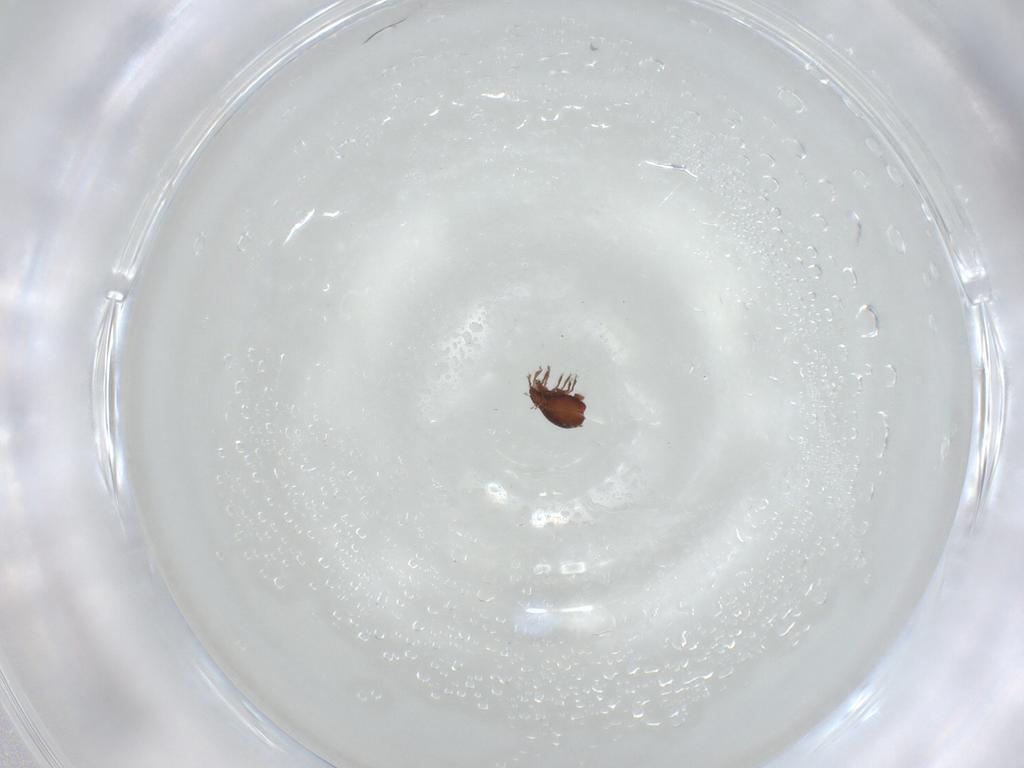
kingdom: Animalia
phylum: Arthropoda
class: Arachnida
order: Sarcoptiformes
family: Oribatulidae
